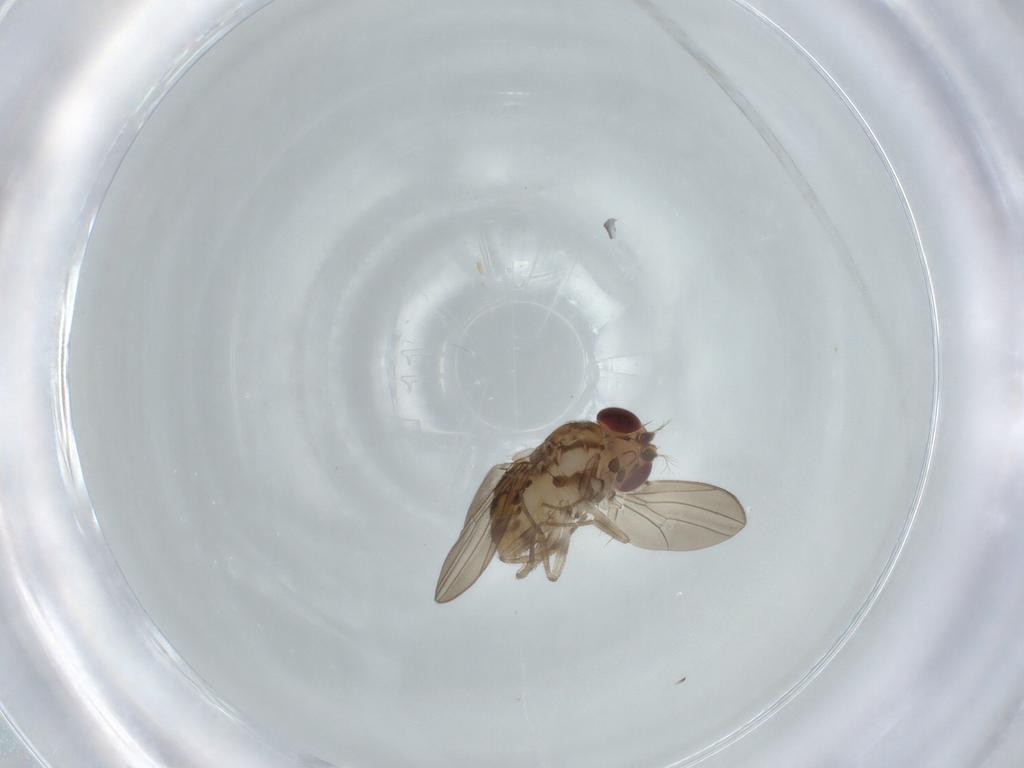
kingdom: Animalia
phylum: Arthropoda
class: Insecta
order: Diptera
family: Drosophilidae
